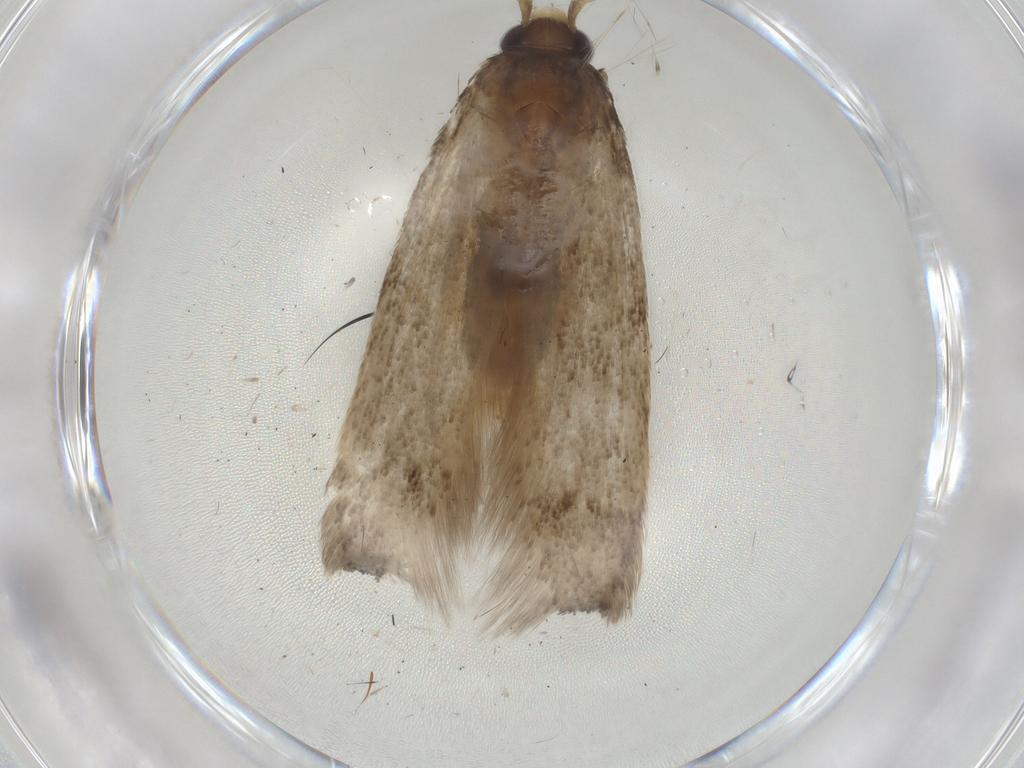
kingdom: Animalia
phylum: Arthropoda
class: Insecta
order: Lepidoptera
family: Coleophoridae
